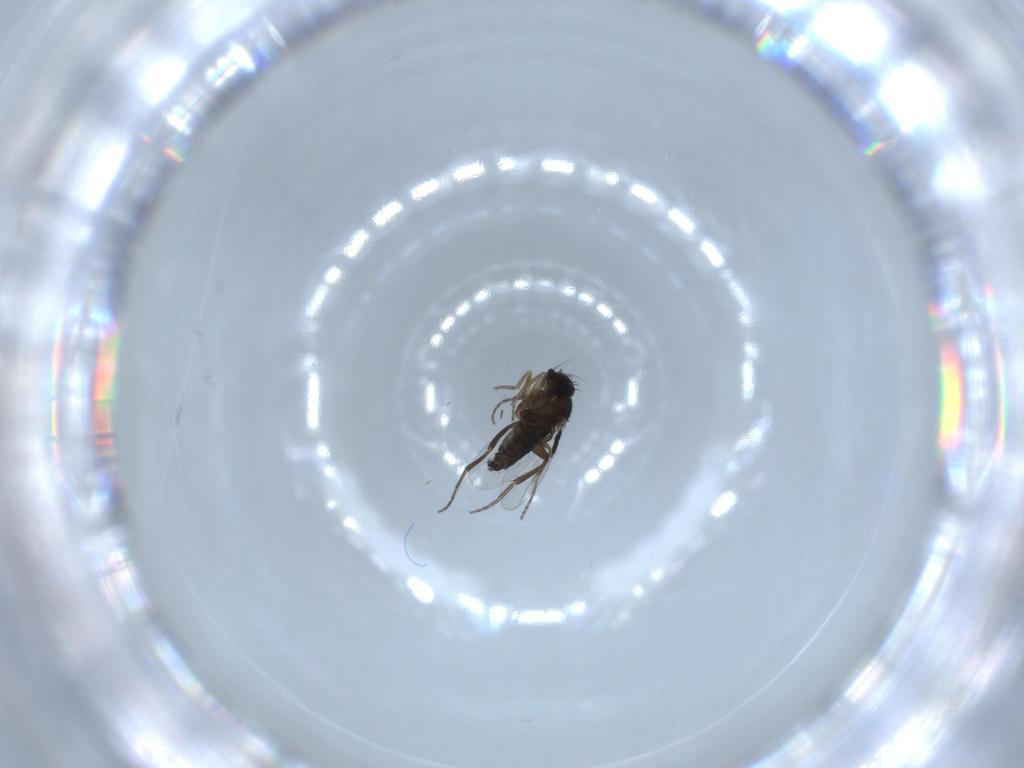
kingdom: Animalia
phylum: Arthropoda
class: Insecta
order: Diptera
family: Phoridae
